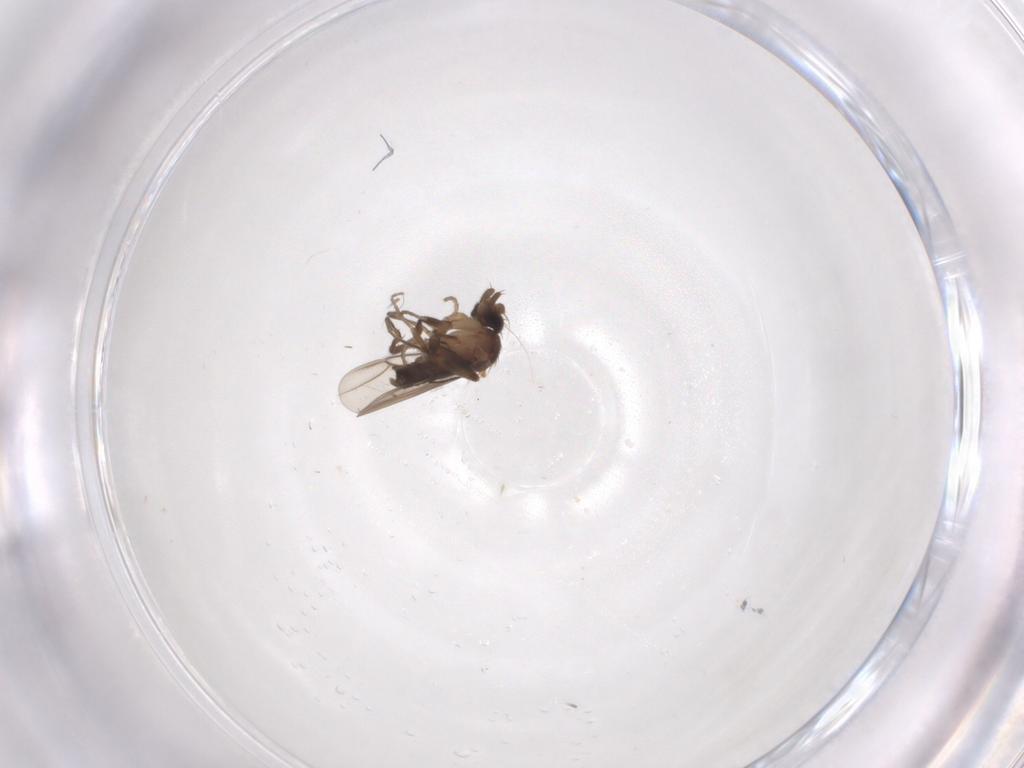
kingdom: Animalia
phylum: Arthropoda
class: Insecta
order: Diptera
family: Phoridae
